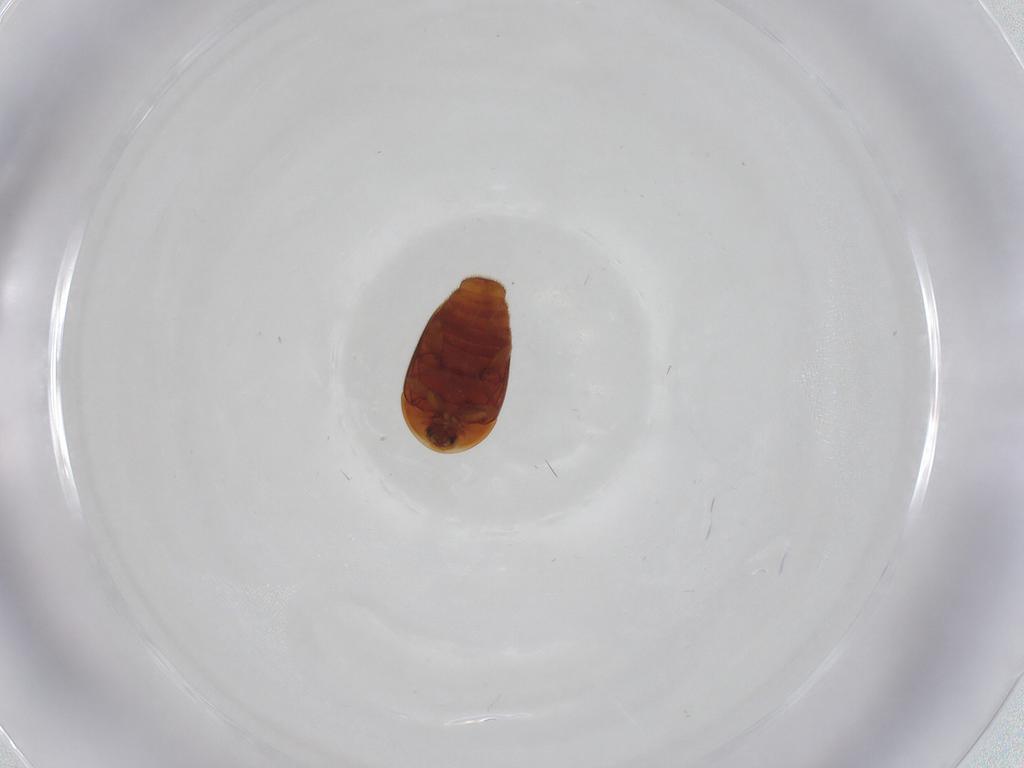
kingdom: Animalia
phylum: Arthropoda
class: Insecta
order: Coleoptera
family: Corylophidae
